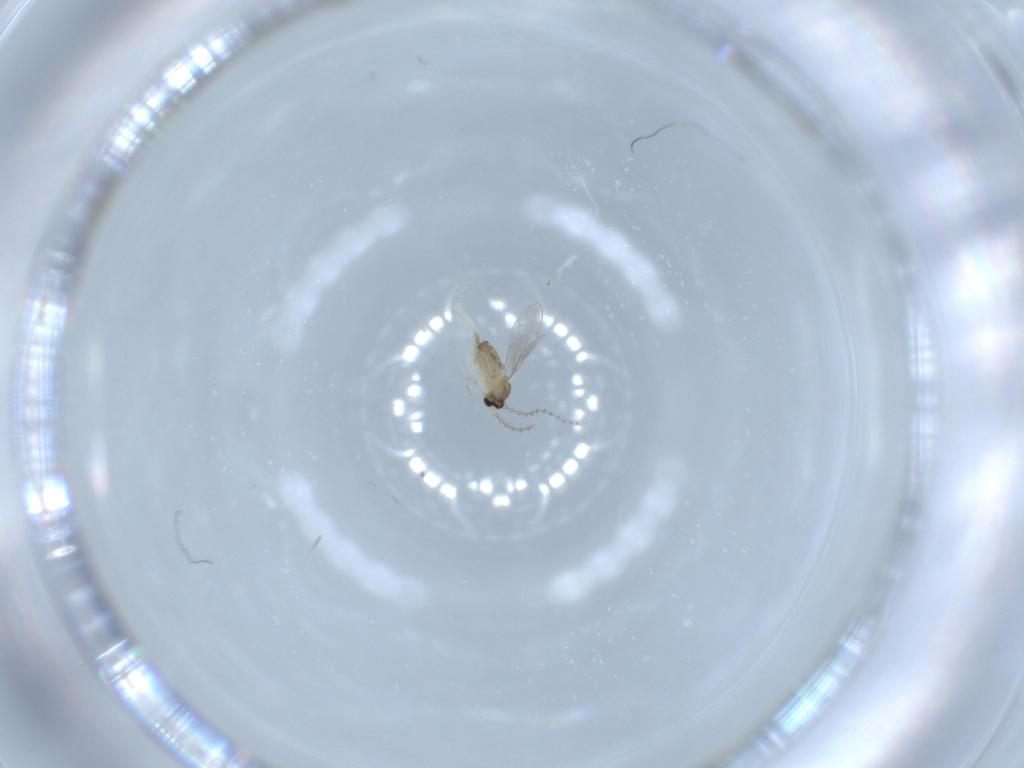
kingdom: Animalia
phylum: Arthropoda
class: Insecta
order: Diptera
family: Cecidomyiidae
